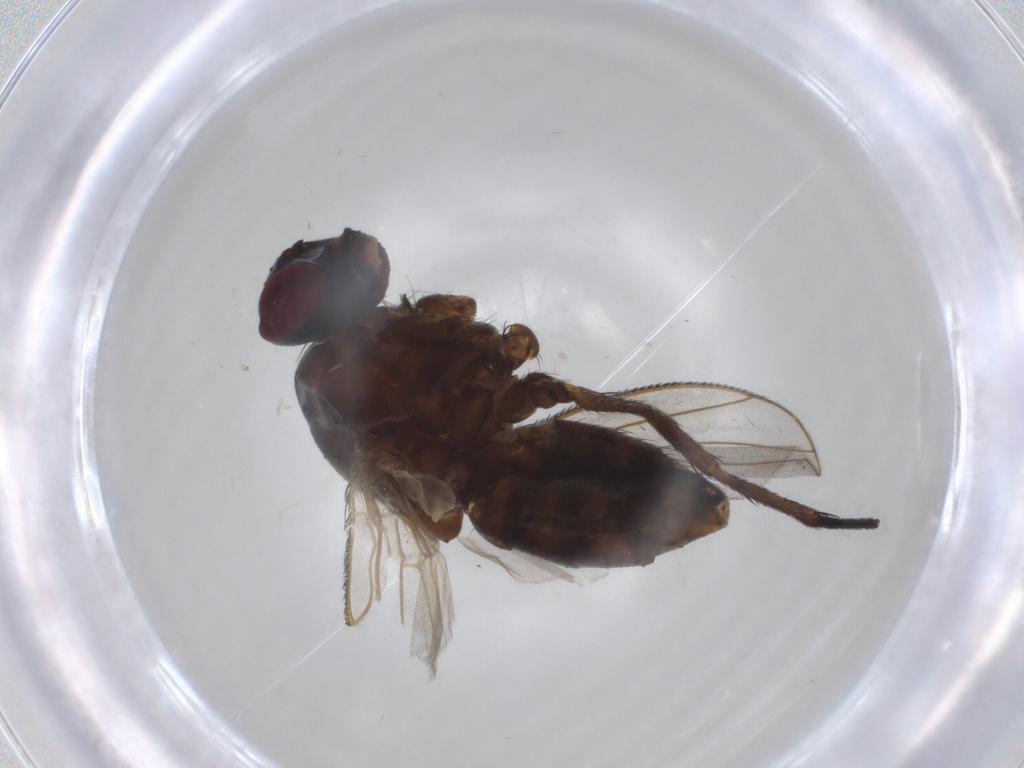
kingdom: Animalia
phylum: Arthropoda
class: Insecta
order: Diptera
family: Muscidae
